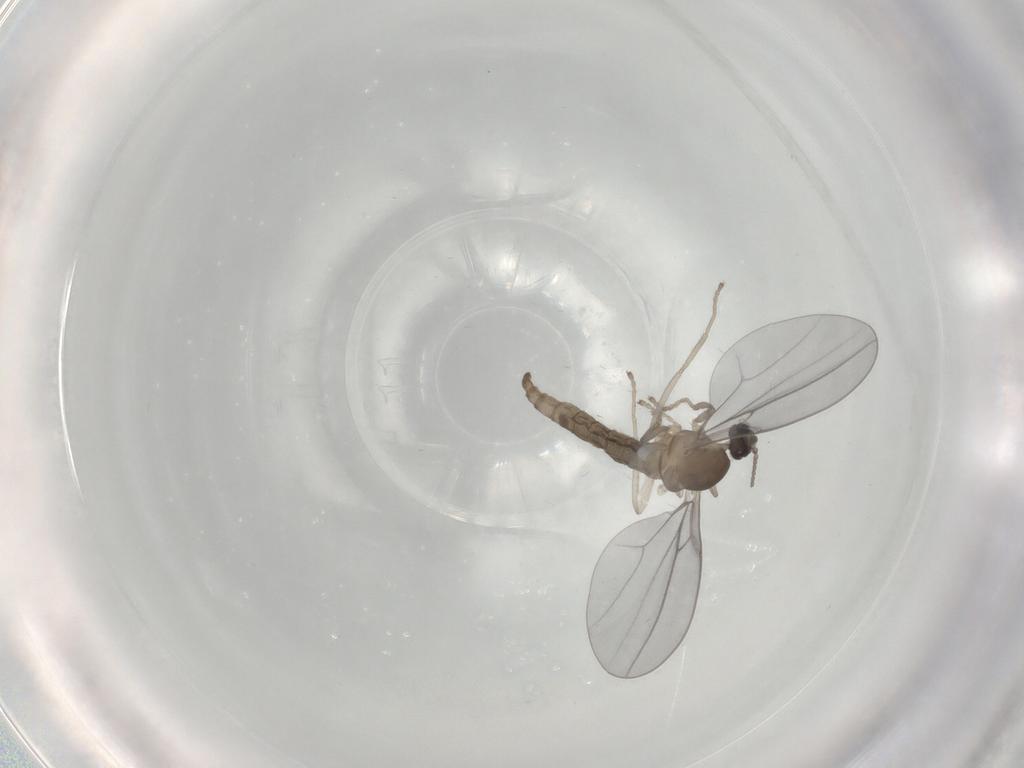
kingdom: Animalia
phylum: Arthropoda
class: Insecta
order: Diptera
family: Cecidomyiidae
